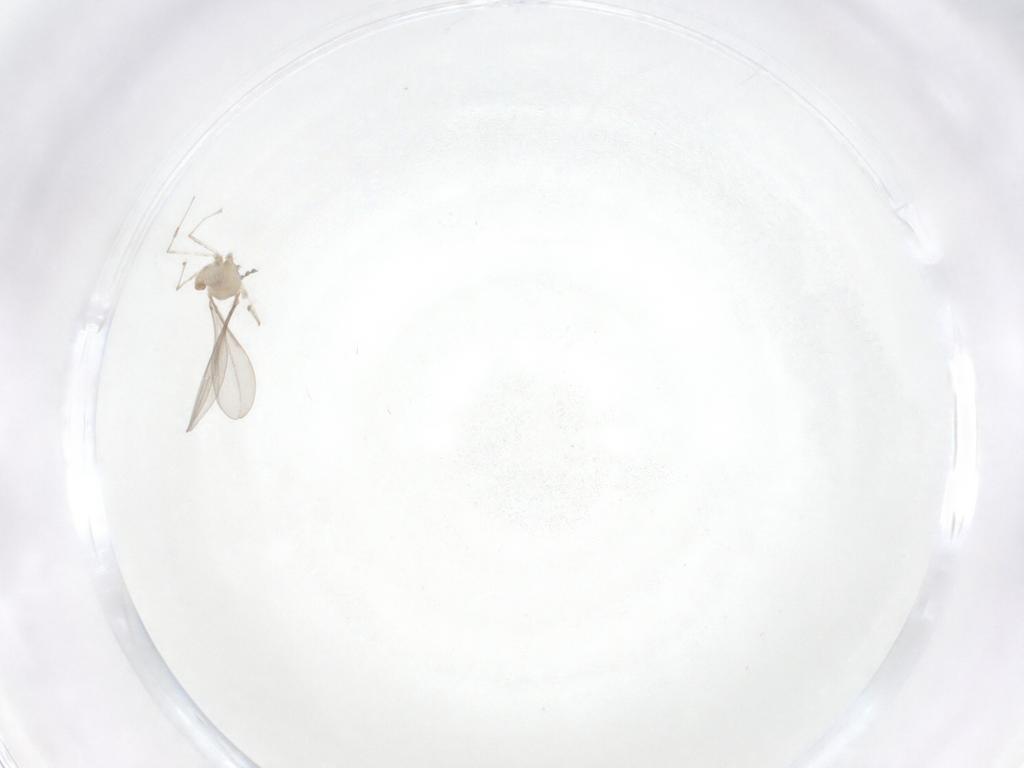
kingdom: Animalia
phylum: Arthropoda
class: Insecta
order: Diptera
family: Cecidomyiidae
